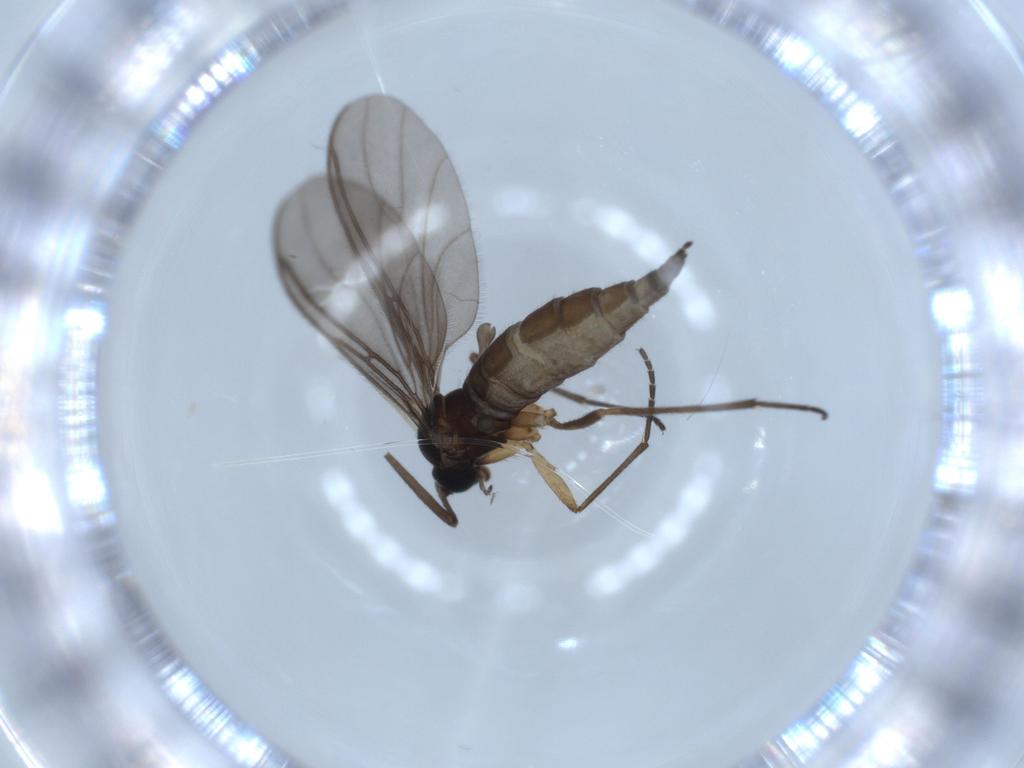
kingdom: Animalia
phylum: Arthropoda
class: Insecta
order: Diptera
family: Sciaridae
